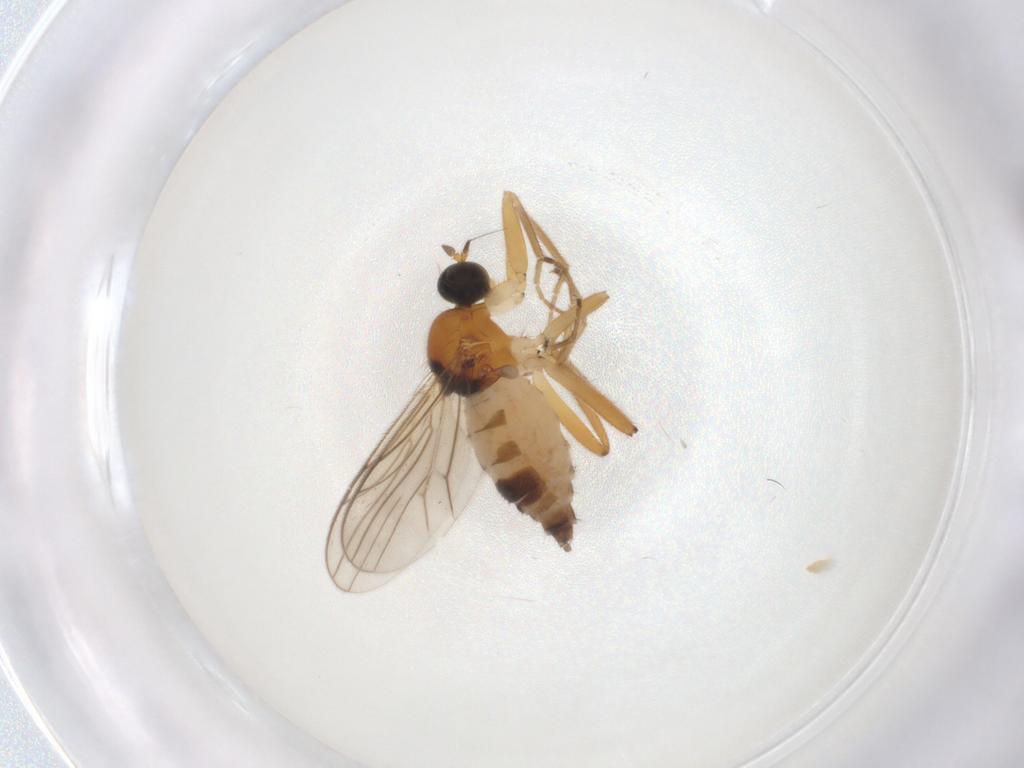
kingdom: Animalia
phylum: Arthropoda
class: Insecta
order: Diptera
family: Hybotidae
